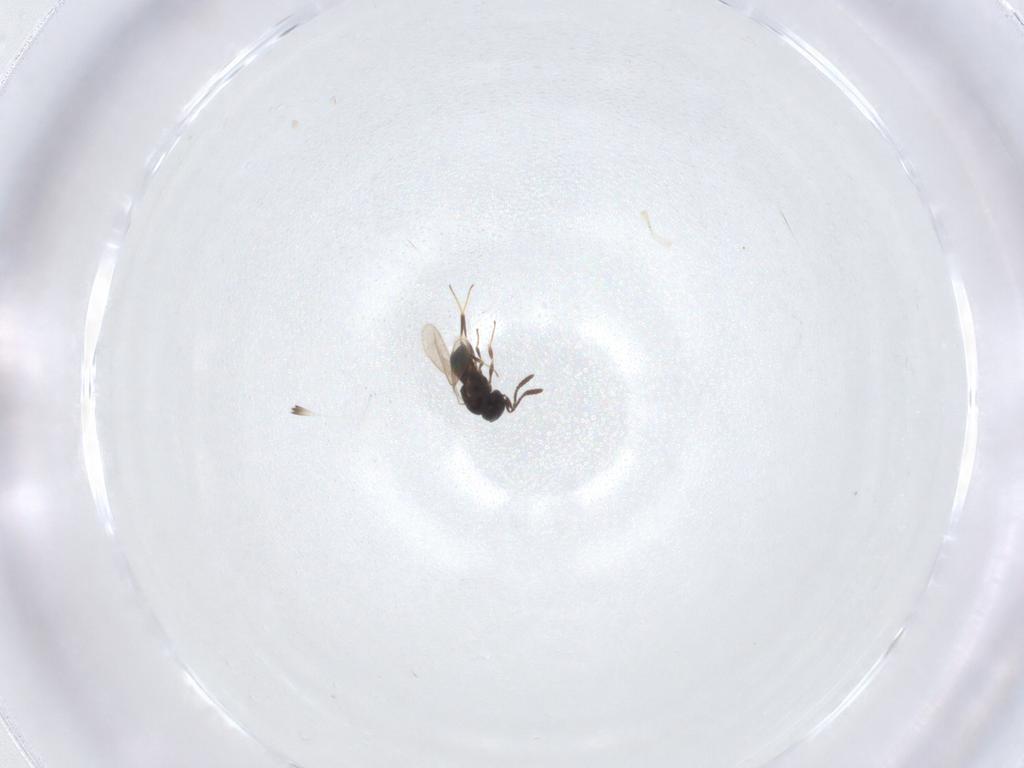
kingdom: Animalia
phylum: Arthropoda
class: Insecta
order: Hymenoptera
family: Scelionidae
